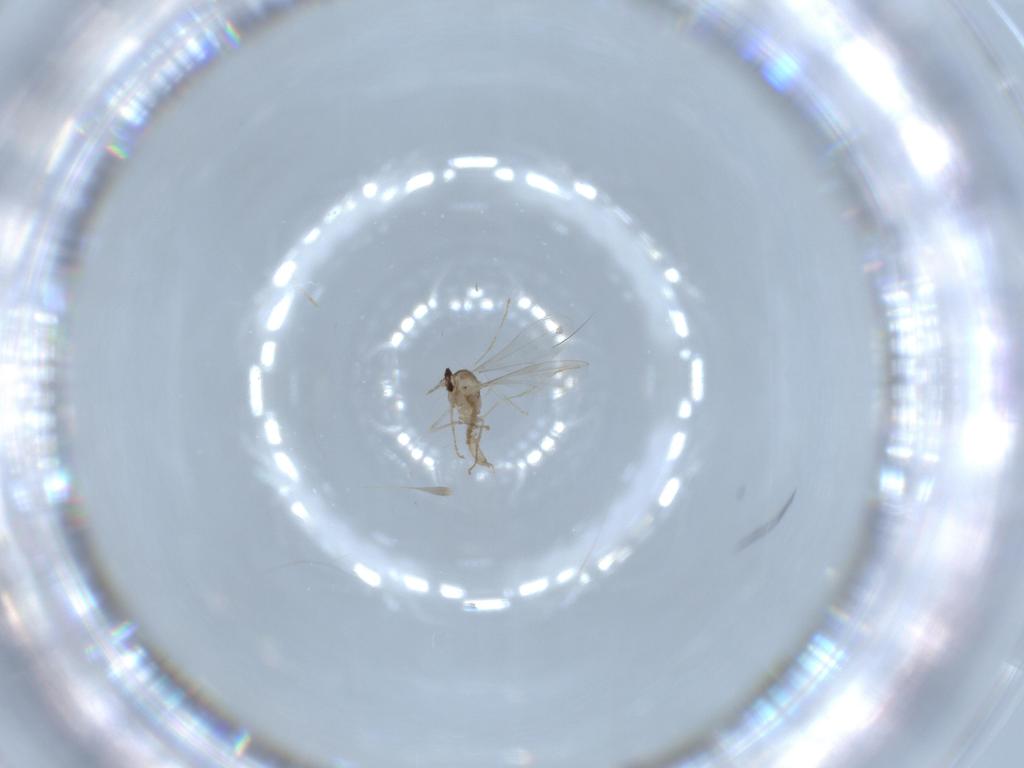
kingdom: Animalia
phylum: Arthropoda
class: Insecta
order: Diptera
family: Cecidomyiidae
